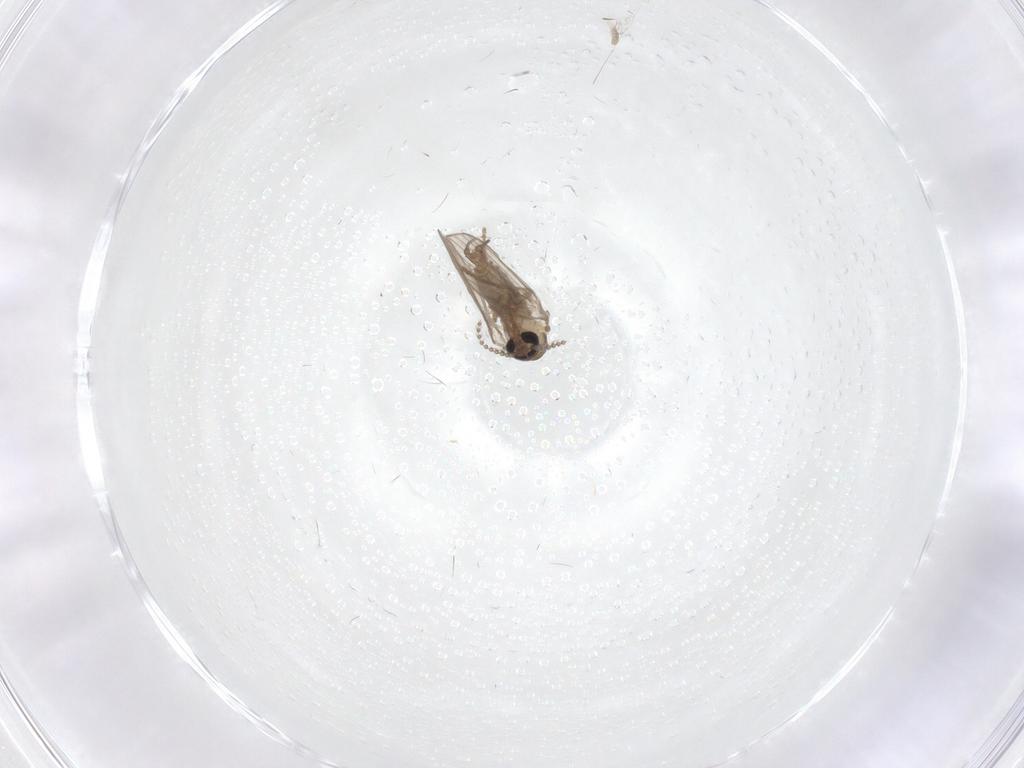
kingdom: Animalia
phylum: Arthropoda
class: Insecta
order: Diptera
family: Psychodidae
